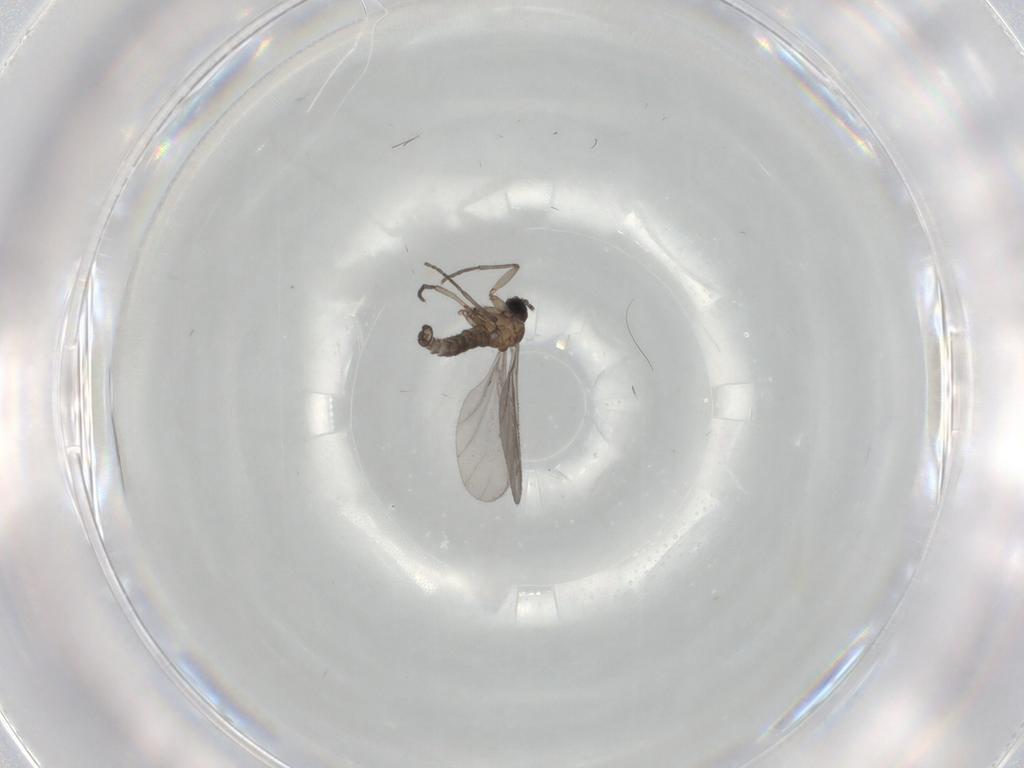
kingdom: Animalia
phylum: Arthropoda
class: Insecta
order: Diptera
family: Sciaridae
